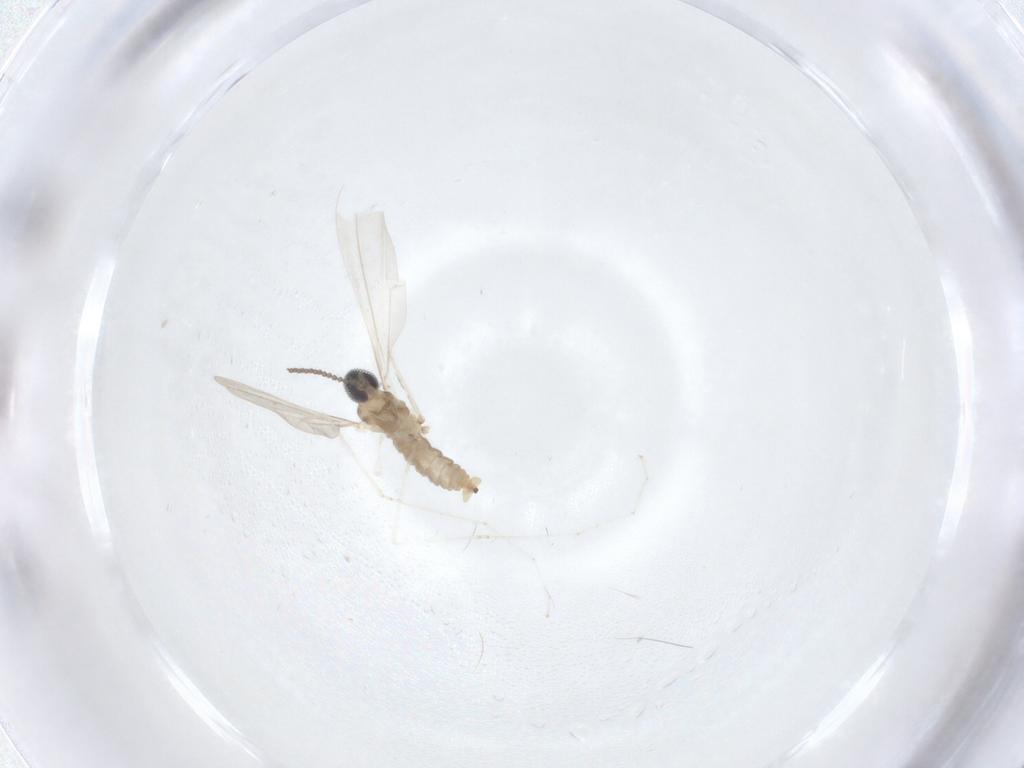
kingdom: Animalia
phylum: Arthropoda
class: Insecta
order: Diptera
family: Cecidomyiidae
